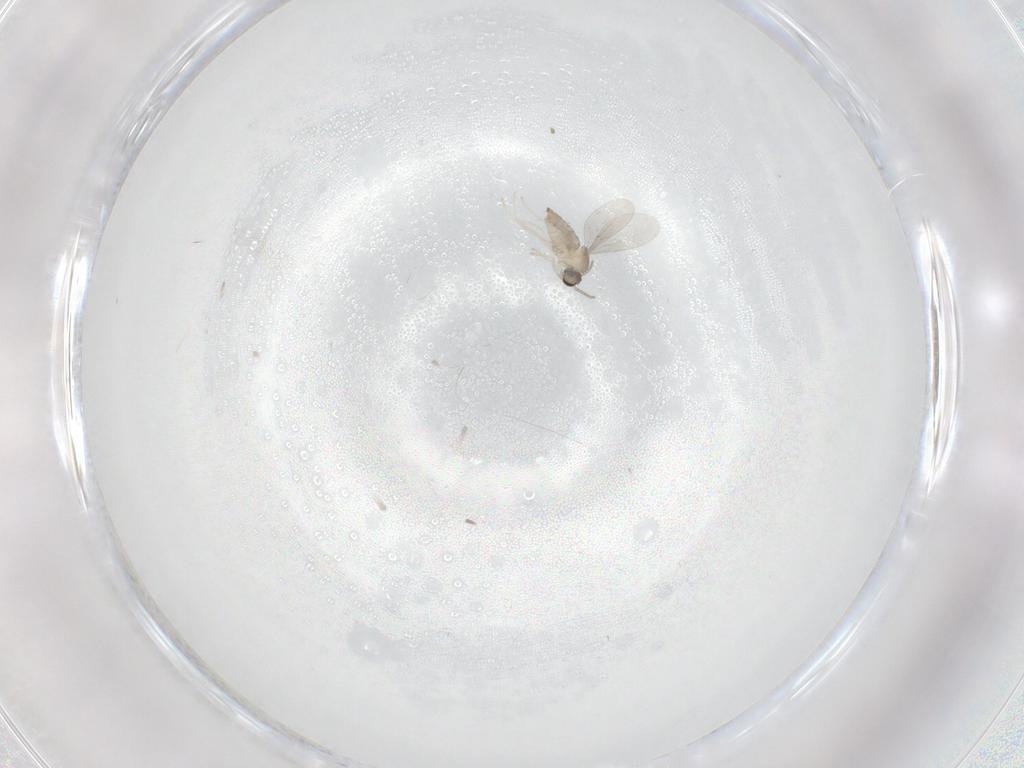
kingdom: Animalia
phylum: Arthropoda
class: Insecta
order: Diptera
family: Cecidomyiidae
